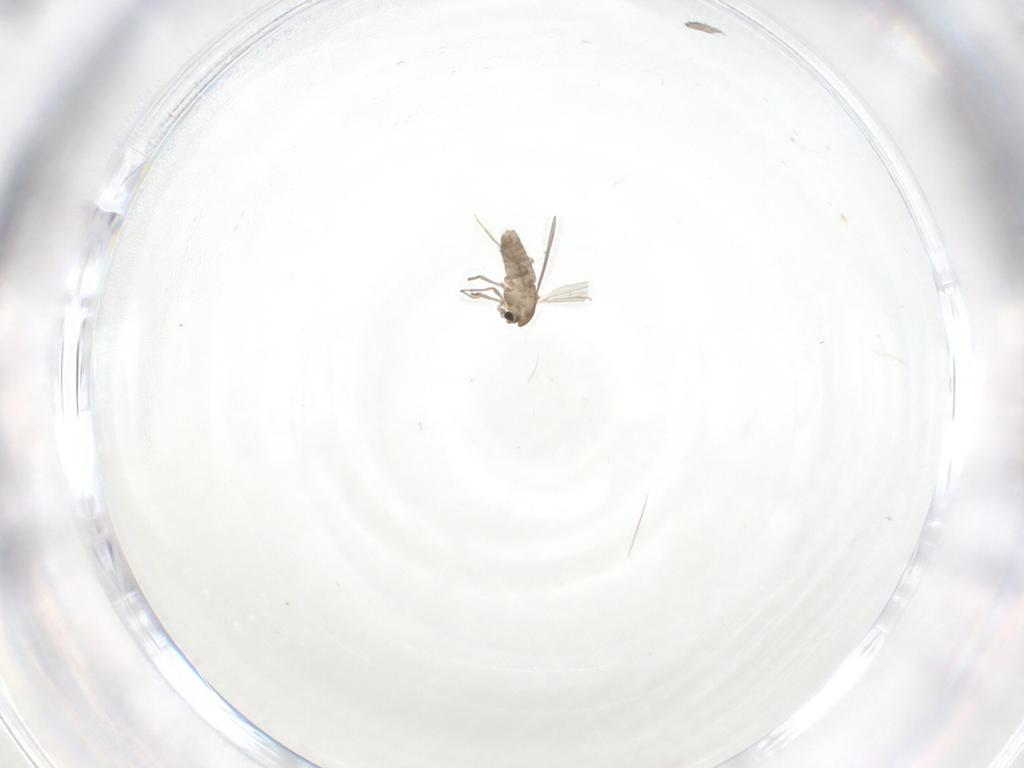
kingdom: Animalia
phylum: Arthropoda
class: Insecta
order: Diptera
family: Chironomidae
